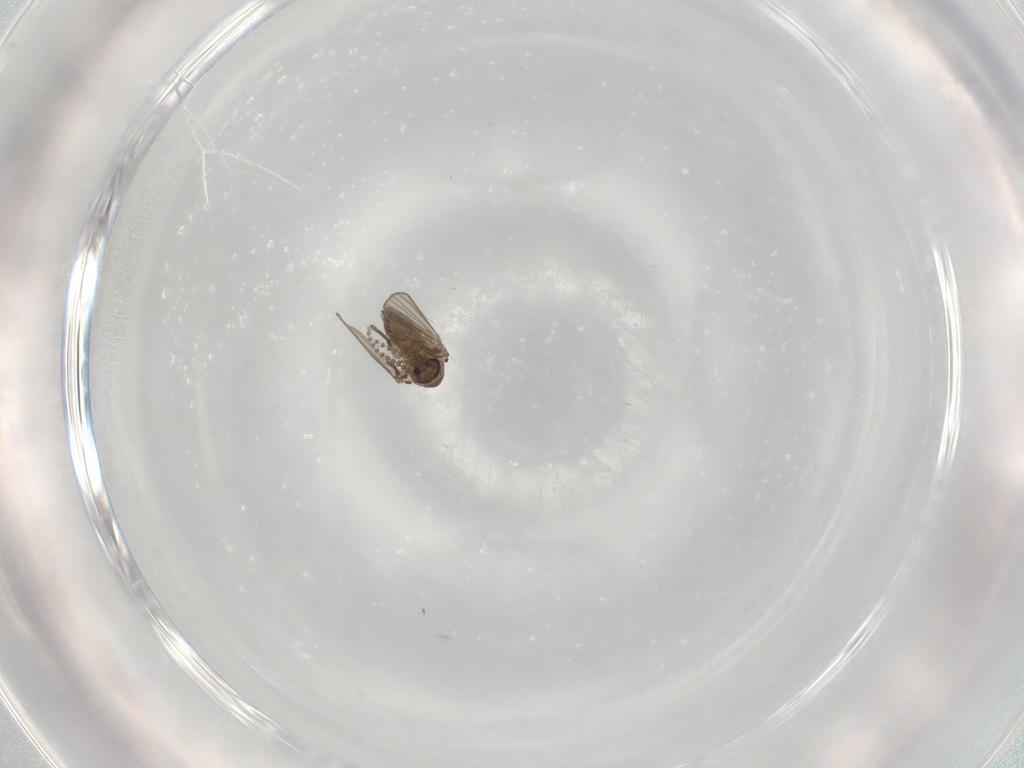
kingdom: Animalia
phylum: Arthropoda
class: Insecta
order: Diptera
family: Psychodidae
